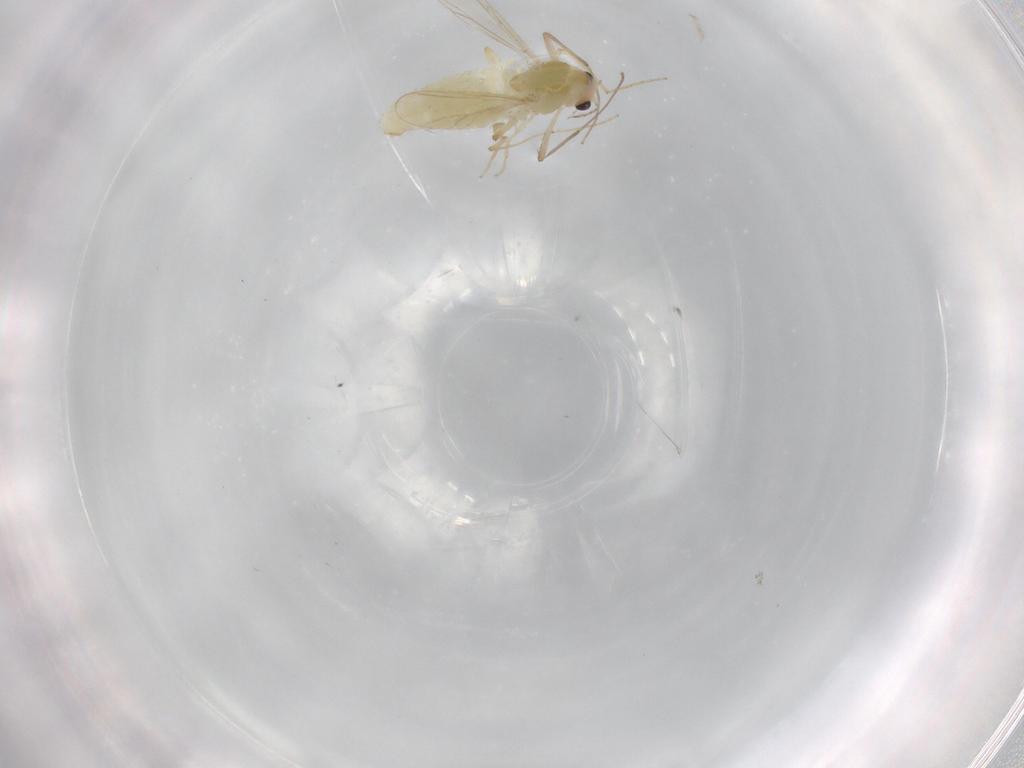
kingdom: Animalia
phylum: Arthropoda
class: Insecta
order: Diptera
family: Chironomidae
